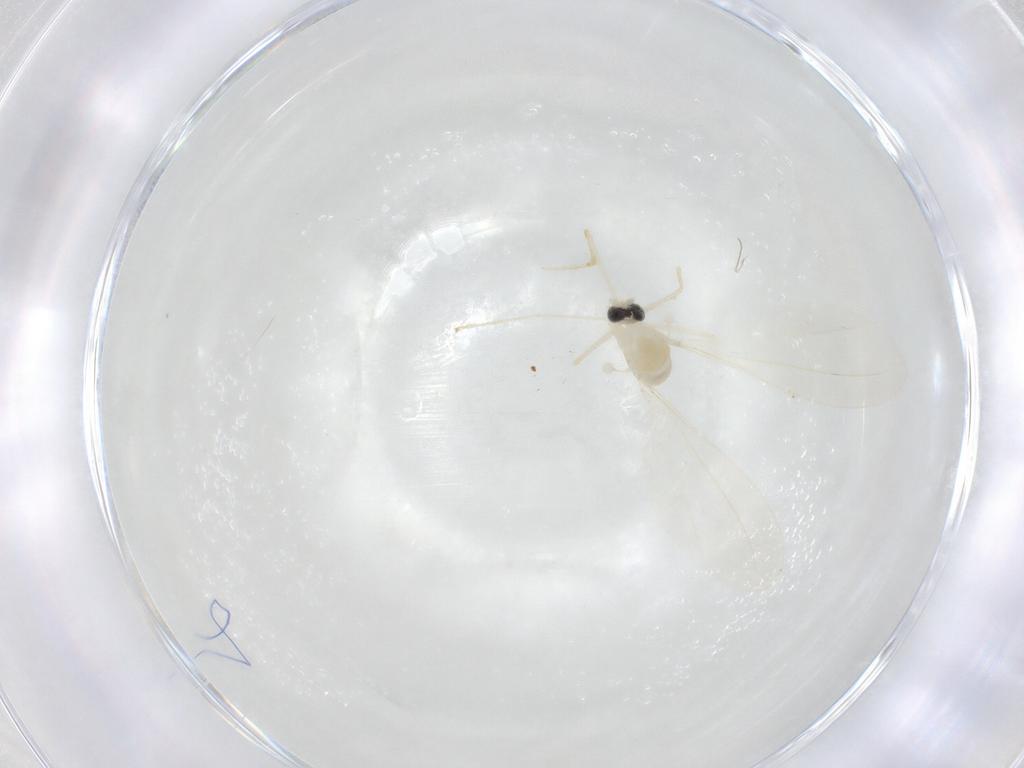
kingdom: Animalia
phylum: Arthropoda
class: Insecta
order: Diptera
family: Cecidomyiidae
